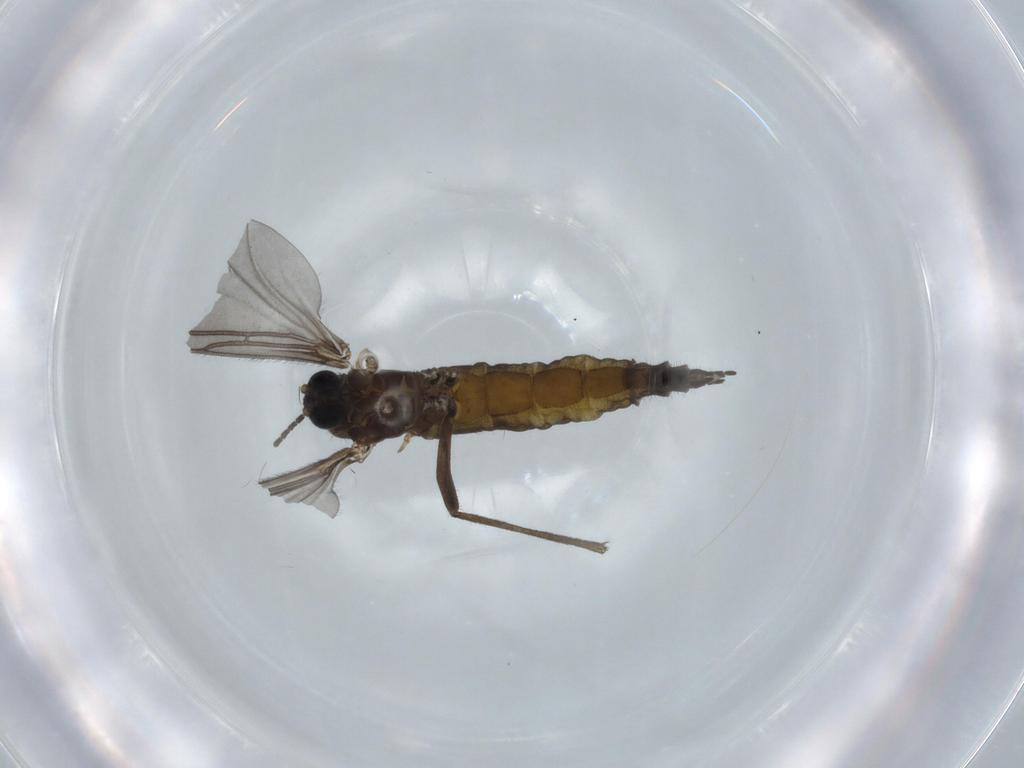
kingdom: Animalia
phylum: Arthropoda
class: Insecta
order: Diptera
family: Sciaridae
